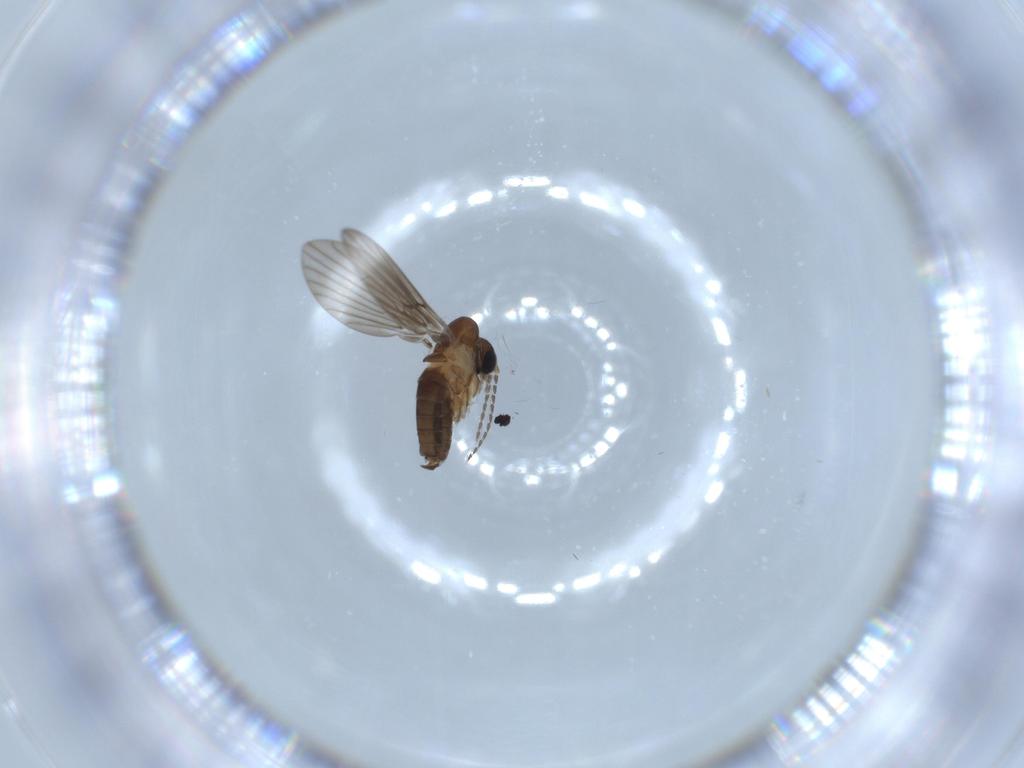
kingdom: Animalia
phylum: Arthropoda
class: Insecta
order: Diptera
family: Psychodidae
